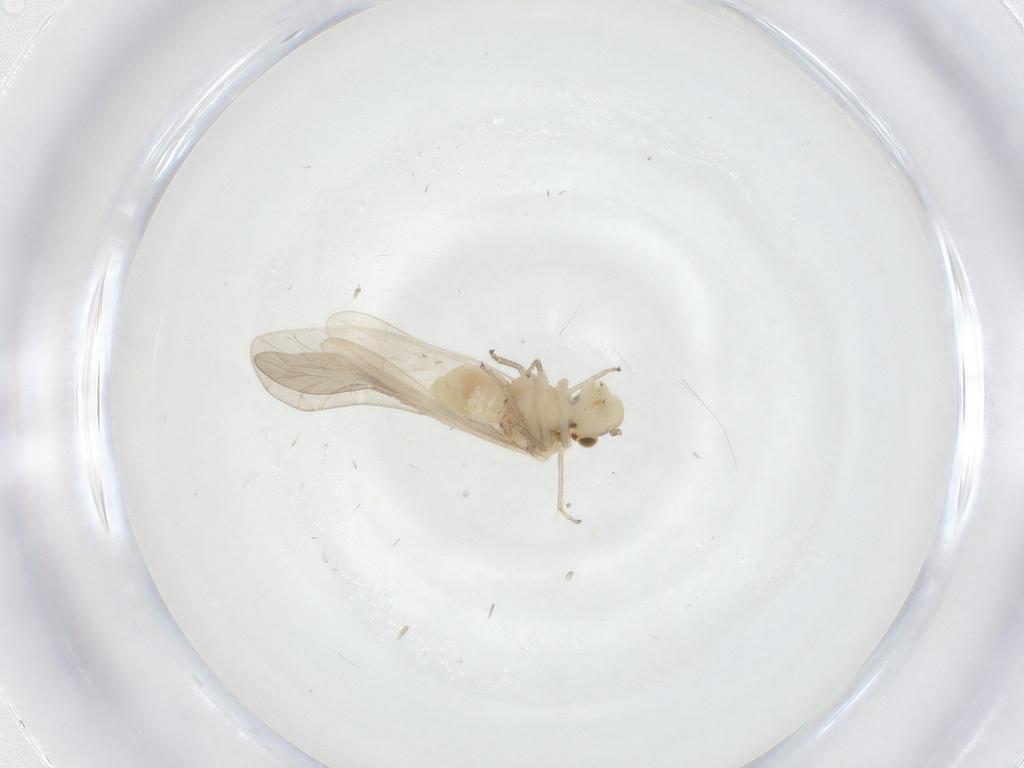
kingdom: Animalia
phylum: Arthropoda
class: Insecta
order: Psocodea
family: Caeciliusidae
